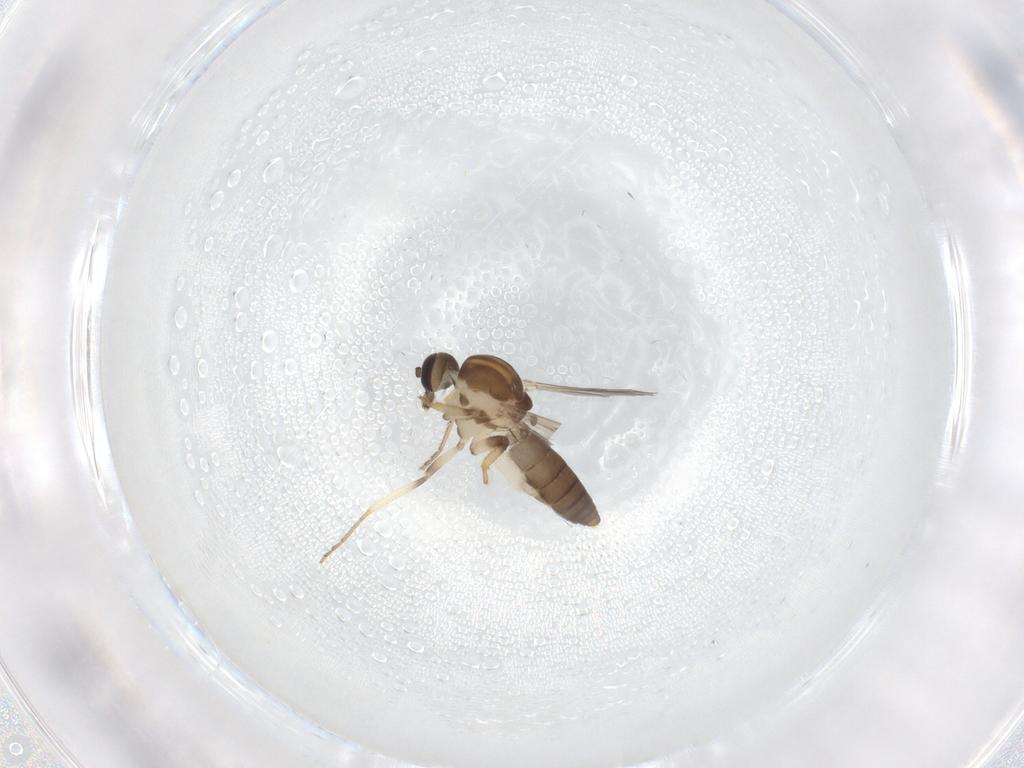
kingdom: Animalia
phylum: Arthropoda
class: Insecta
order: Diptera
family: Ceratopogonidae
